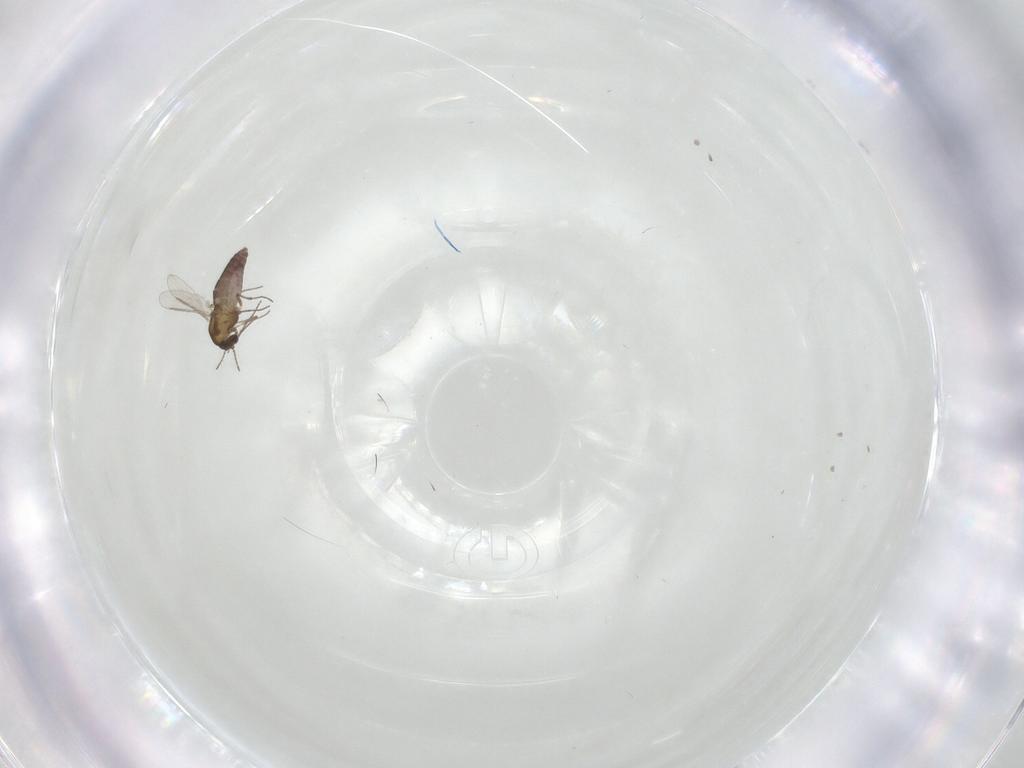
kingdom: Animalia
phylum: Arthropoda
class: Insecta
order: Diptera
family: Chironomidae
